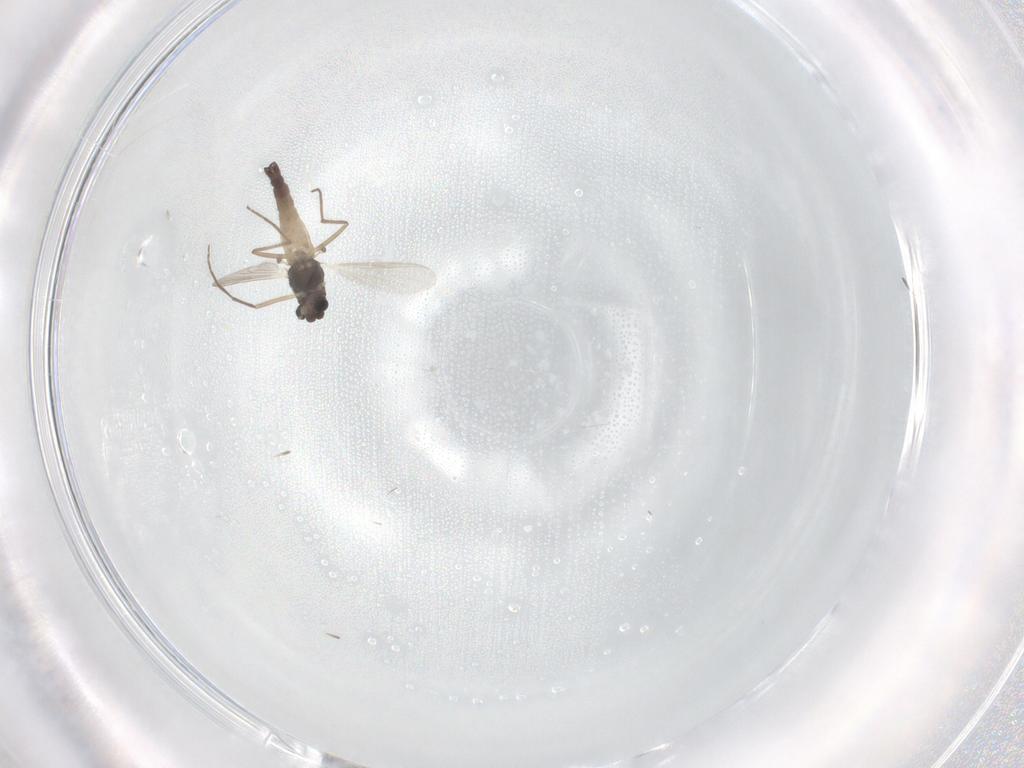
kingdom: Animalia
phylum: Arthropoda
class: Insecta
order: Diptera
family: Chironomidae
